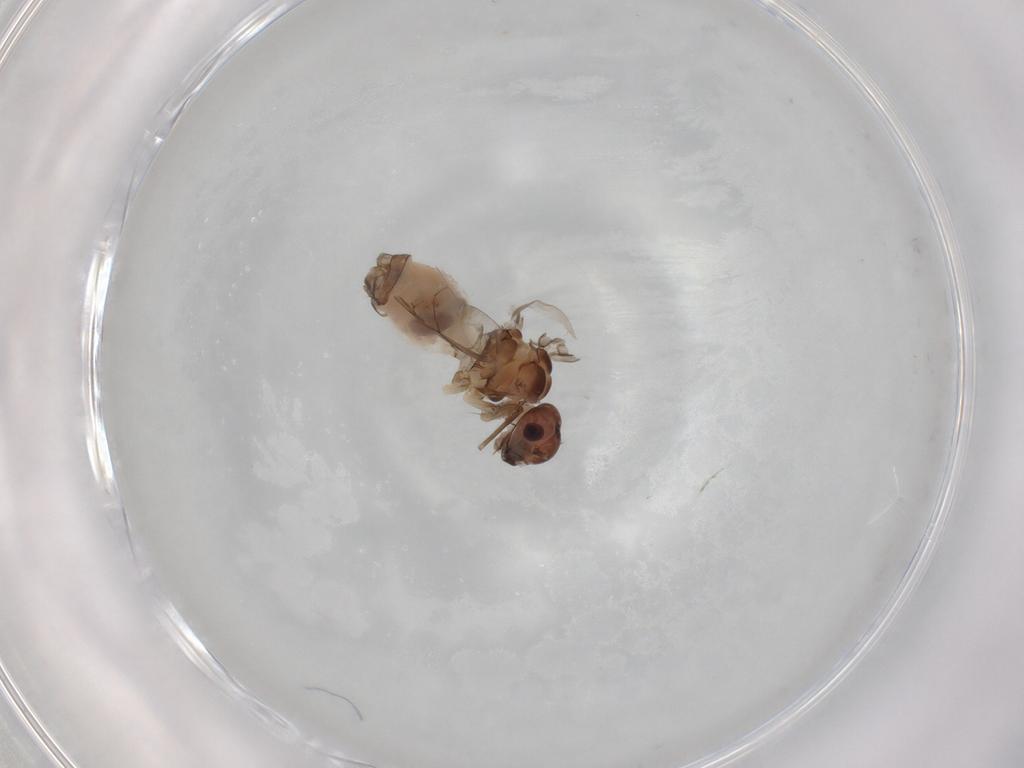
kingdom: Animalia
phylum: Arthropoda
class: Insecta
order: Psocodea
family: Peripsocidae
